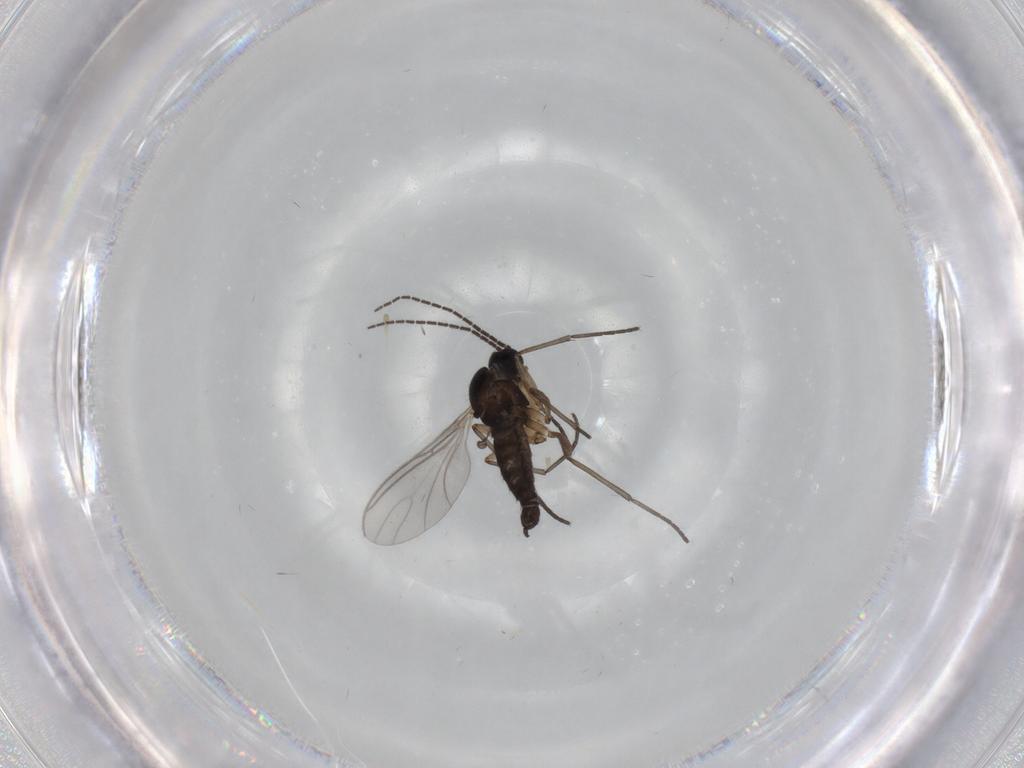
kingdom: Animalia
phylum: Arthropoda
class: Insecta
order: Diptera
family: Sciaridae
